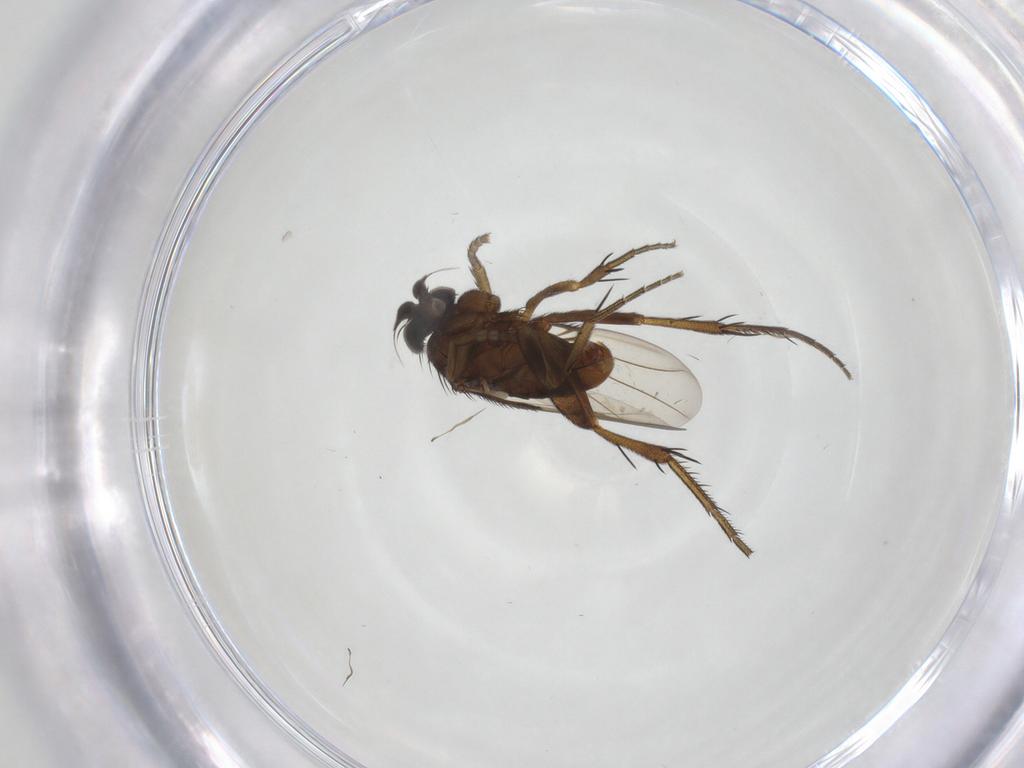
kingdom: Animalia
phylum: Arthropoda
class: Insecta
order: Diptera
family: Phoridae
